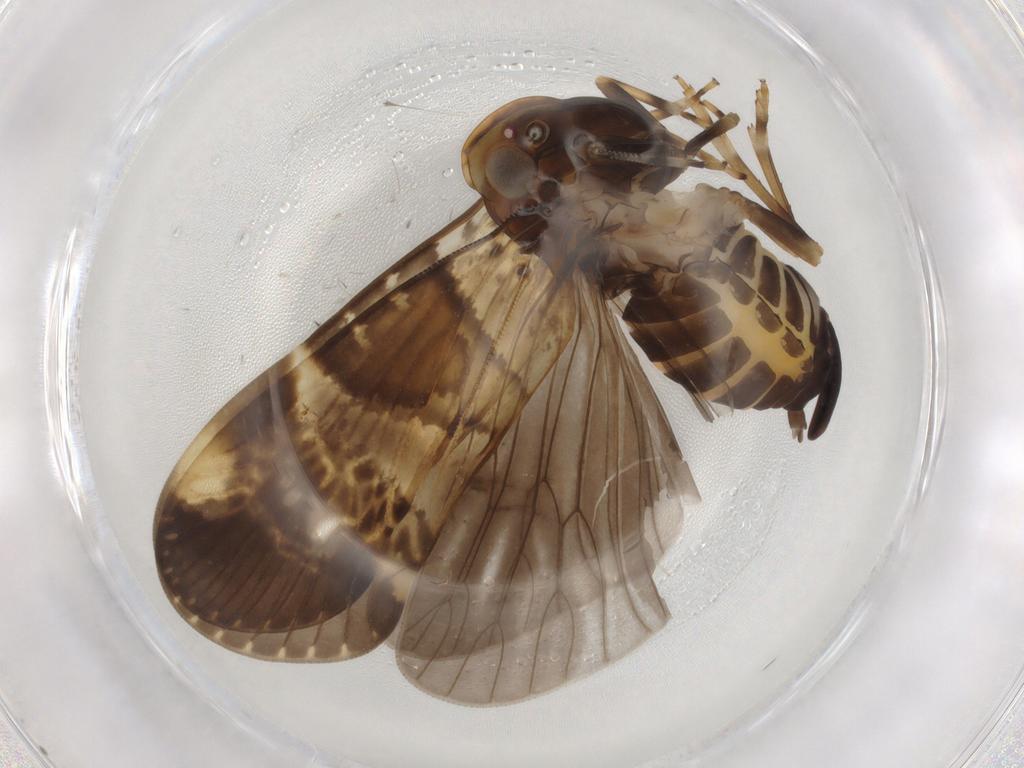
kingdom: Animalia
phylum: Arthropoda
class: Insecta
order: Hemiptera
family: Cixiidae
